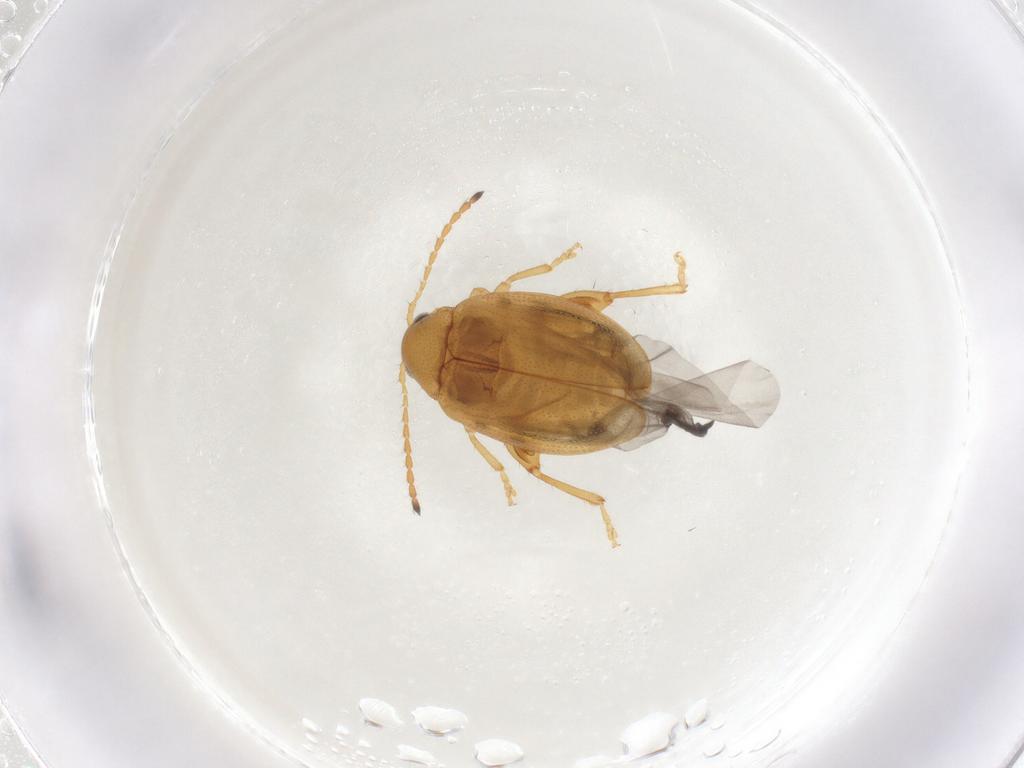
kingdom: Animalia
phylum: Arthropoda
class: Insecta
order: Coleoptera
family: Chrysomelidae
